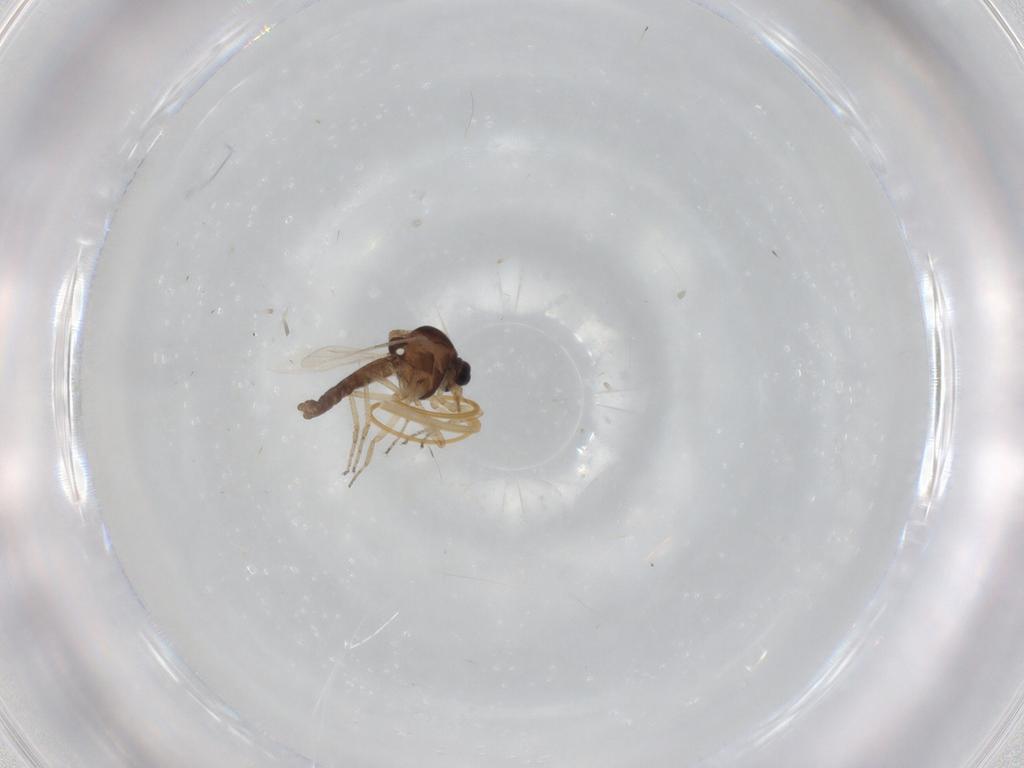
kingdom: Animalia
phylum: Arthropoda
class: Insecta
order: Diptera
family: Ceratopogonidae
